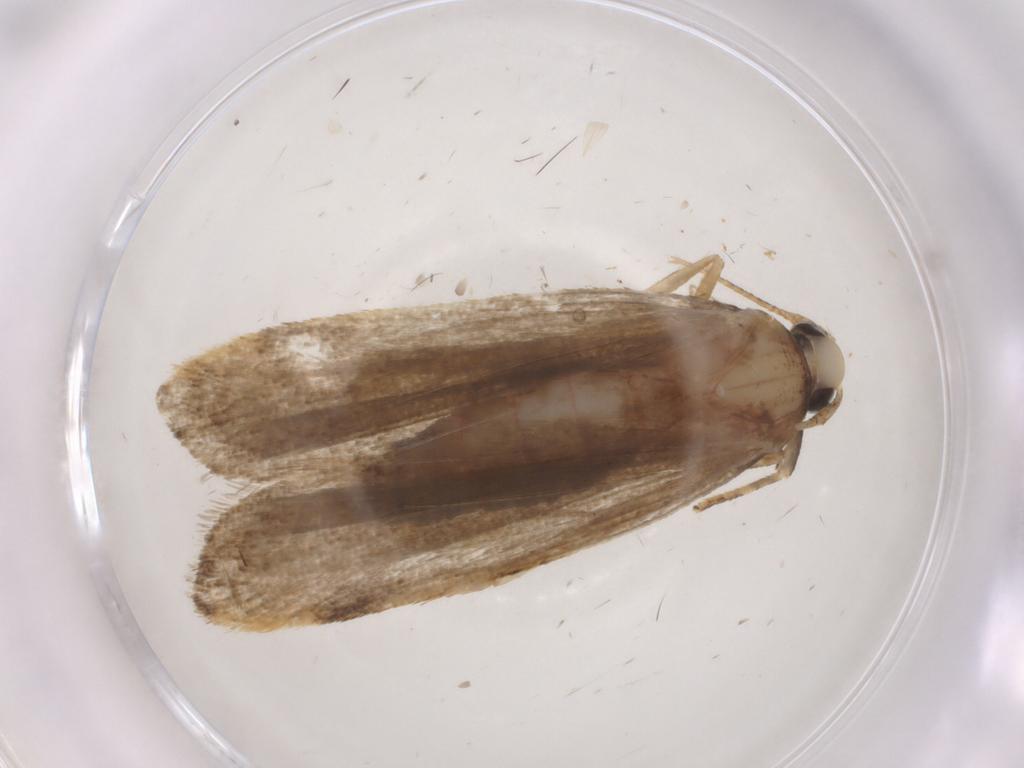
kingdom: Animalia
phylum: Arthropoda
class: Insecta
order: Lepidoptera
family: Autostichidae
